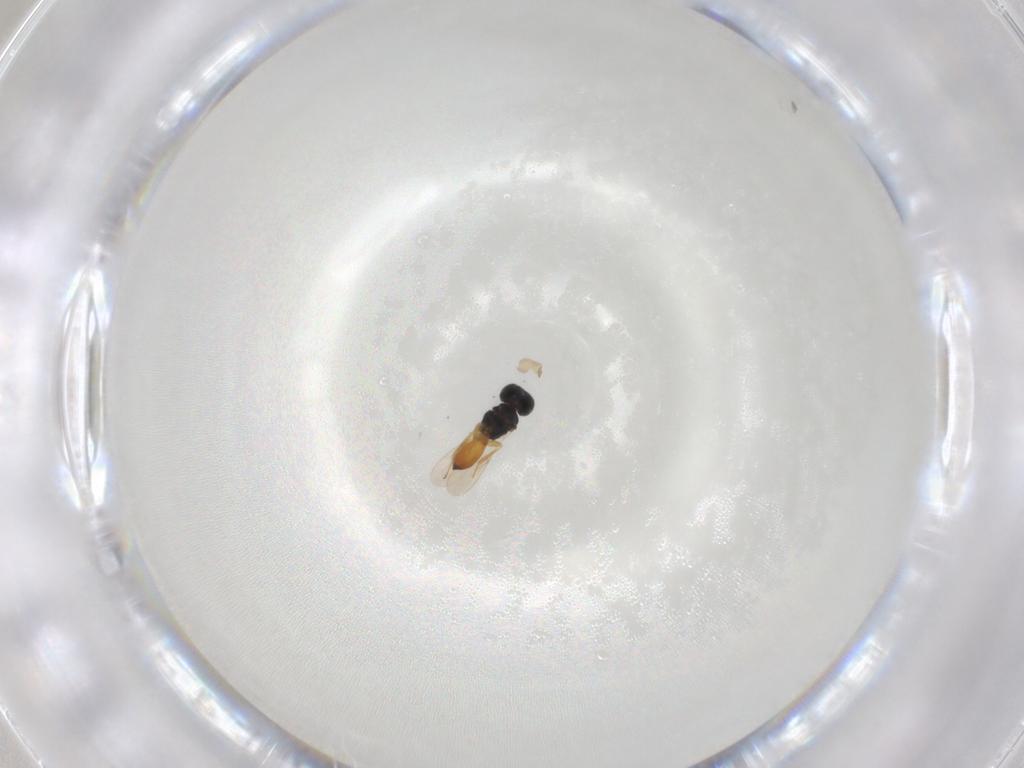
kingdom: Animalia
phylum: Arthropoda
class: Insecta
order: Hymenoptera
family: Scelionidae
